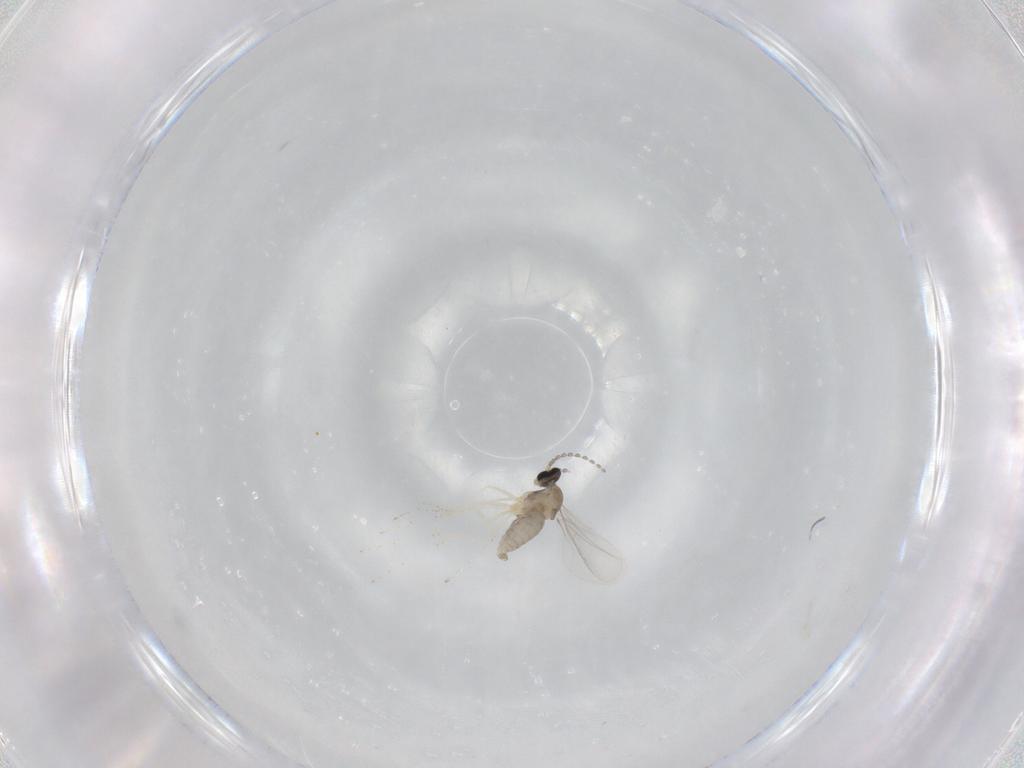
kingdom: Animalia
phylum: Arthropoda
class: Insecta
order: Diptera
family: Cecidomyiidae
